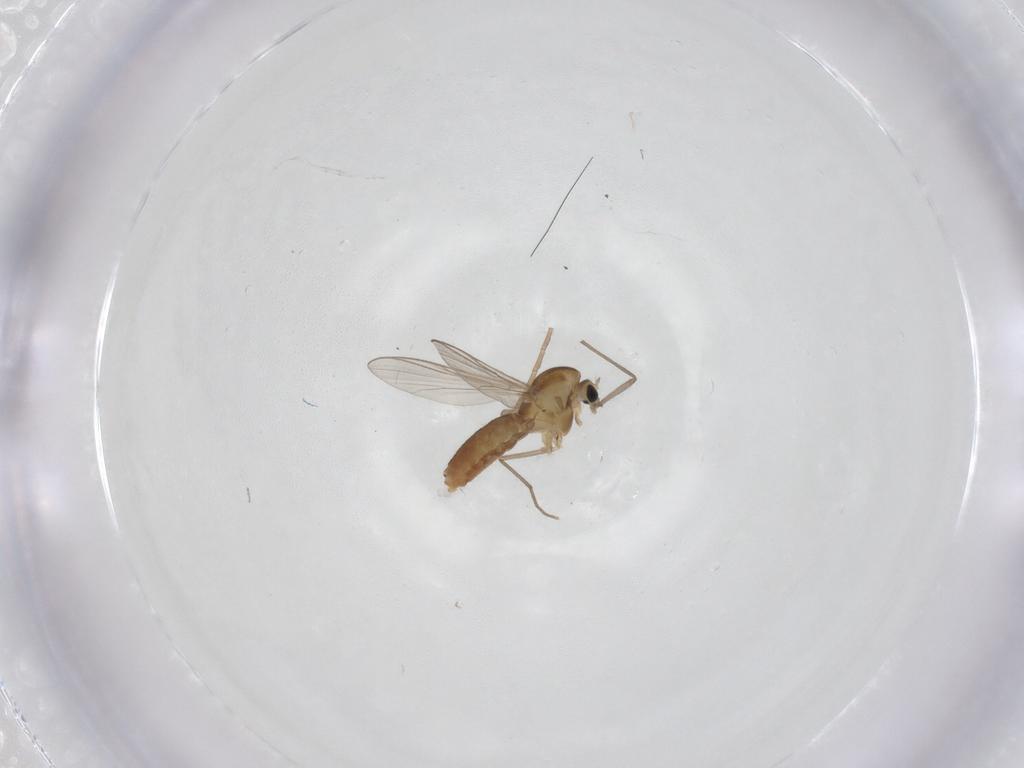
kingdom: Animalia
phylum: Arthropoda
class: Insecta
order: Diptera
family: Chironomidae
